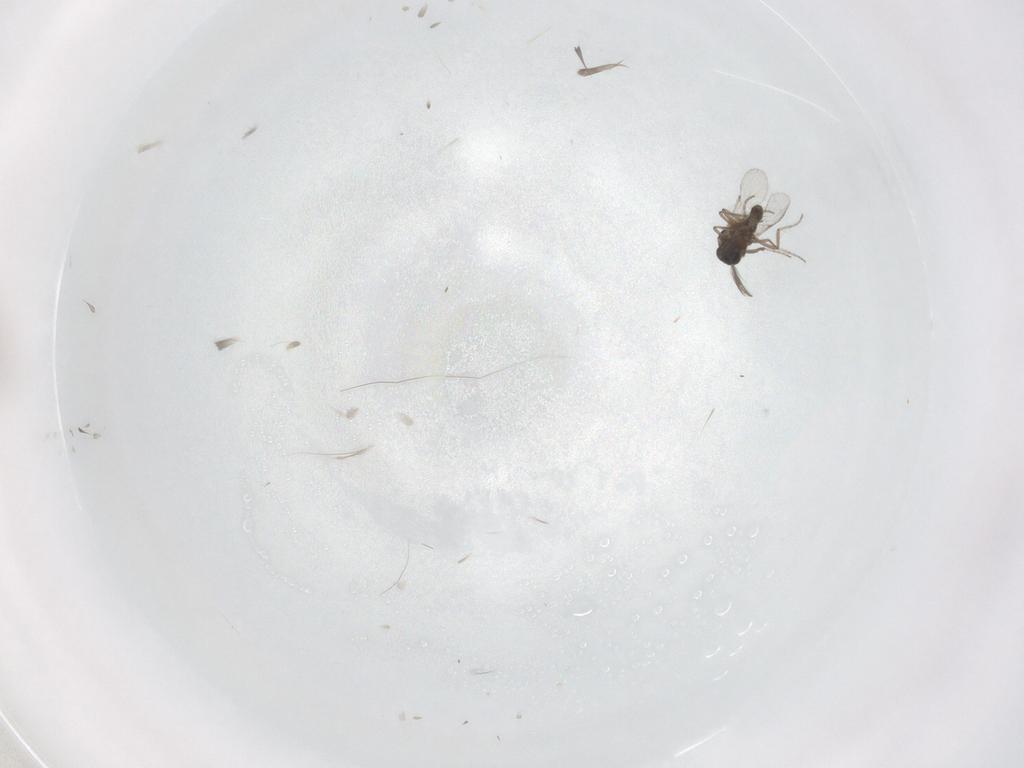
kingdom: Animalia
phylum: Arthropoda
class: Insecta
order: Diptera
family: Ceratopogonidae
